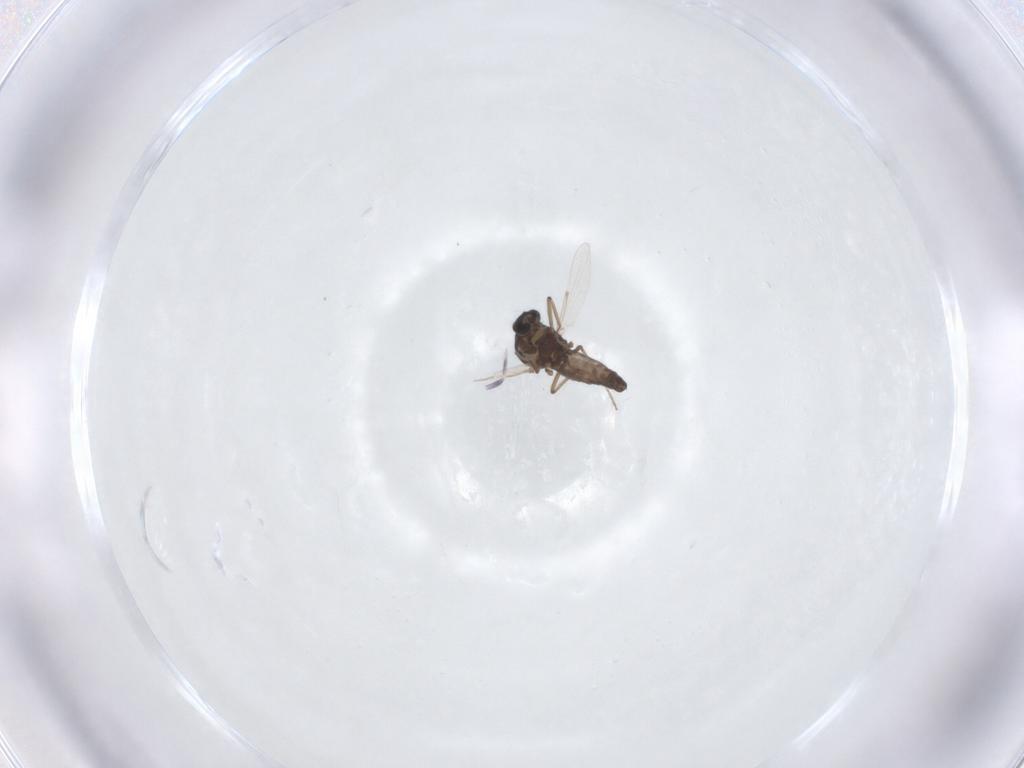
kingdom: Animalia
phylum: Arthropoda
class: Insecta
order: Diptera
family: Ceratopogonidae
